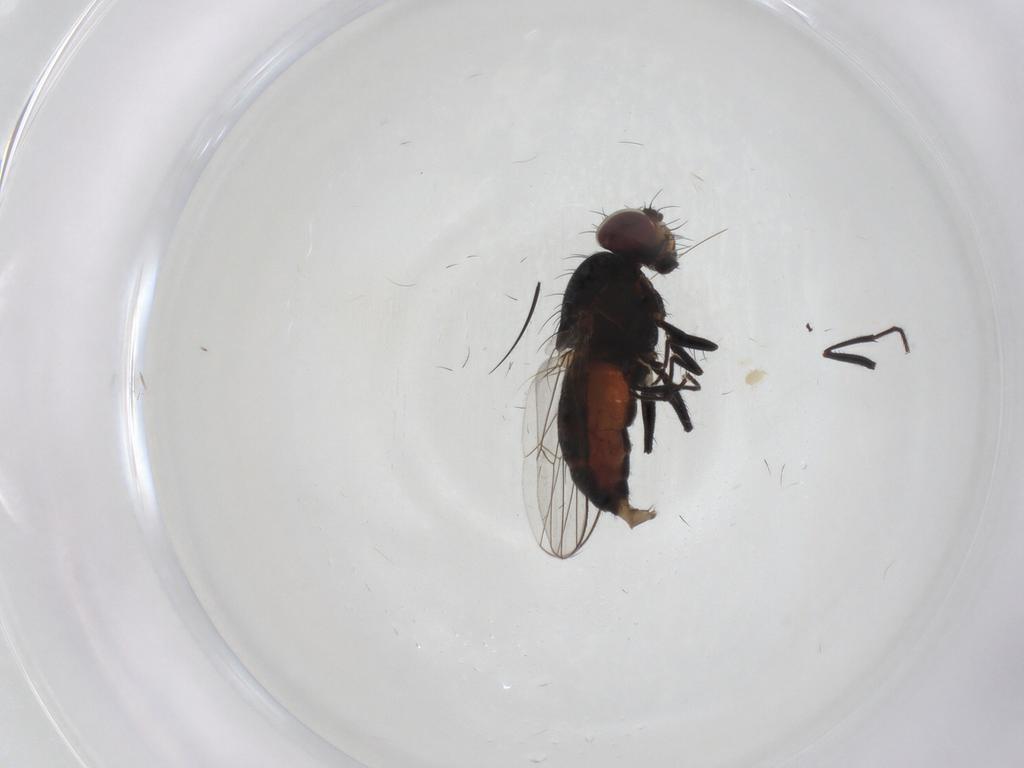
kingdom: Animalia
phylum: Arthropoda
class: Insecta
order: Diptera
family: Carnidae
